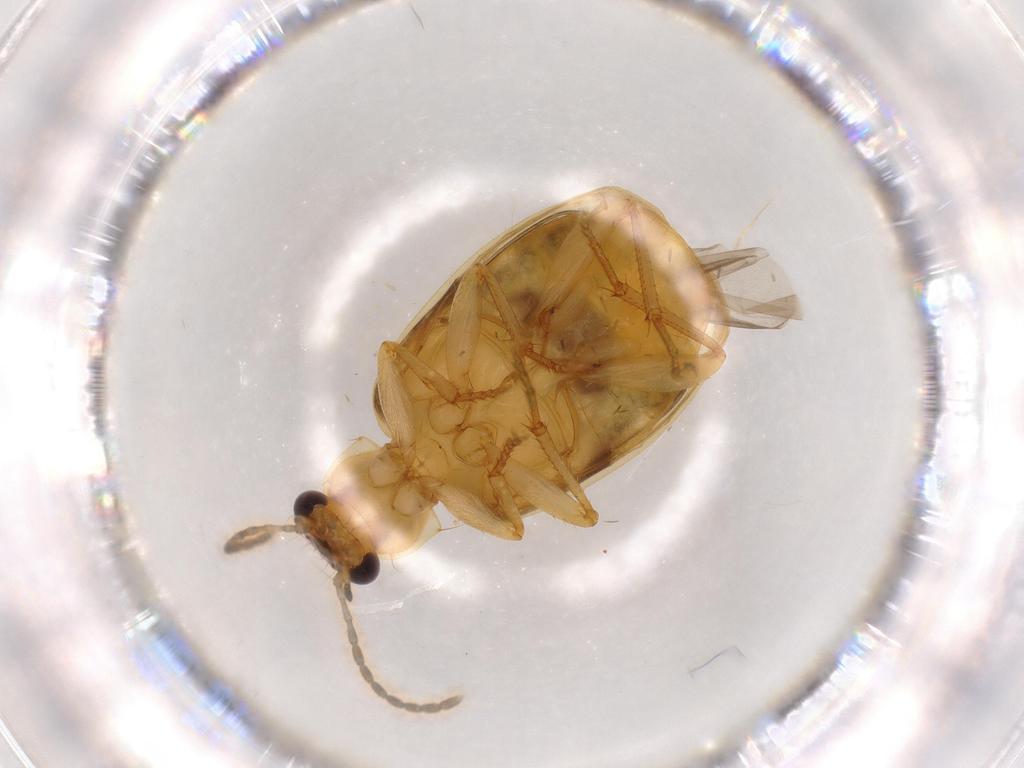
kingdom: Animalia
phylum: Arthropoda
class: Insecta
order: Coleoptera
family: Carabidae
